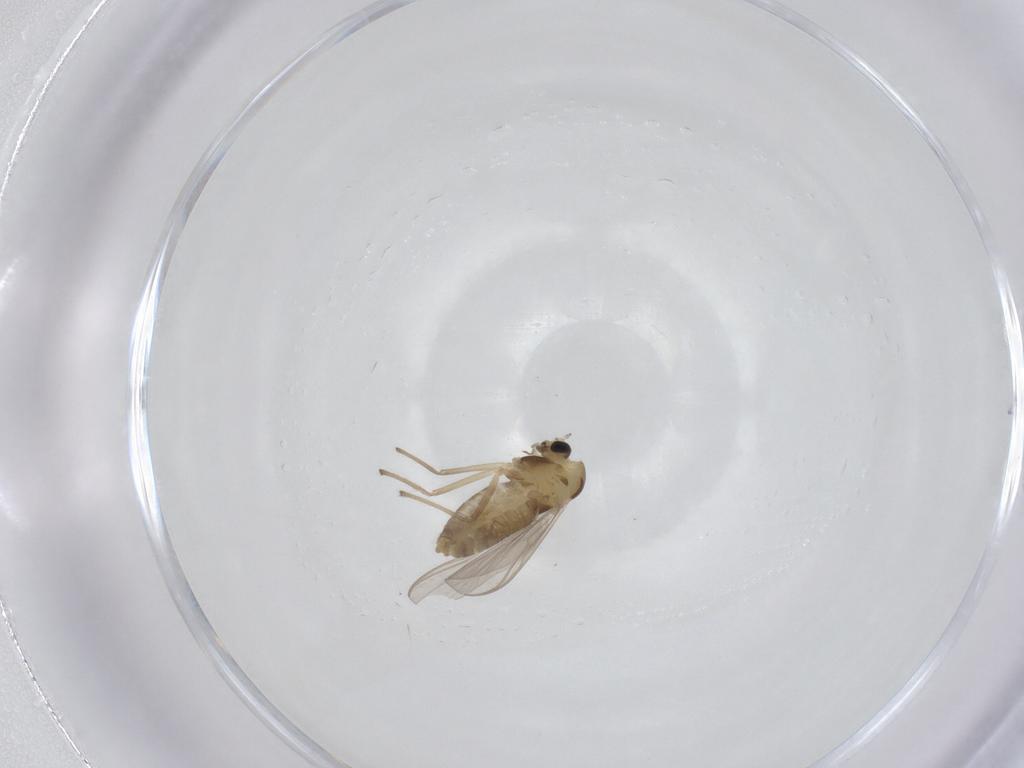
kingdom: Animalia
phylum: Arthropoda
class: Insecta
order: Diptera
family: Chironomidae
